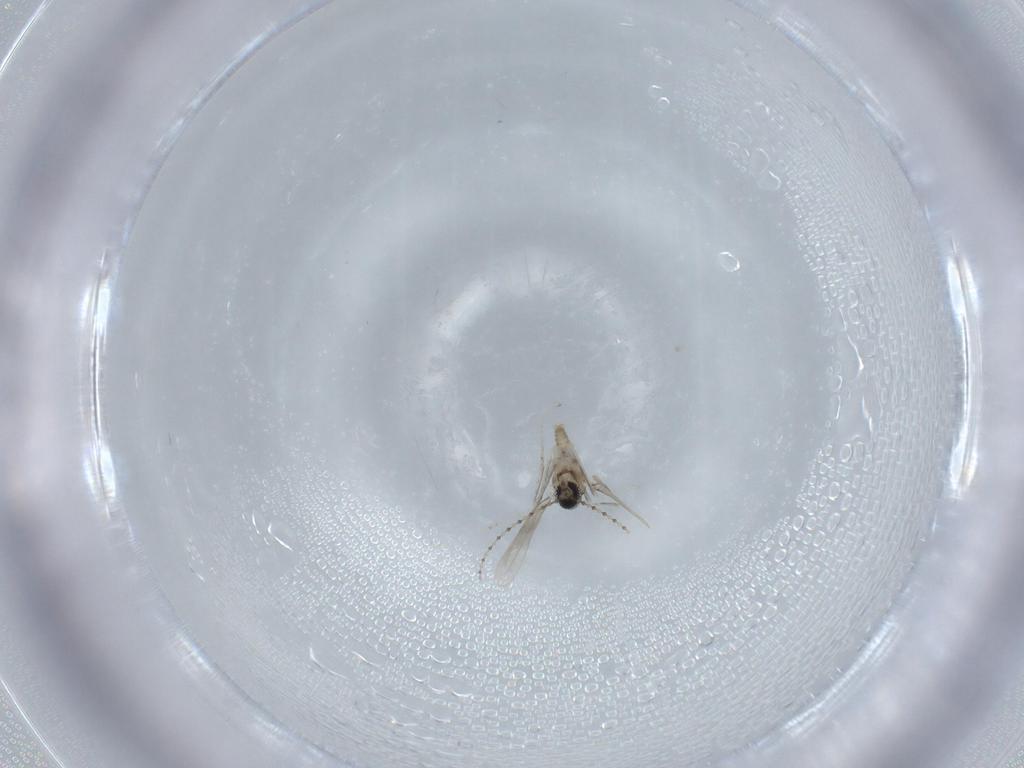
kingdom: Animalia
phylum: Arthropoda
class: Insecta
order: Diptera
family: Cecidomyiidae
